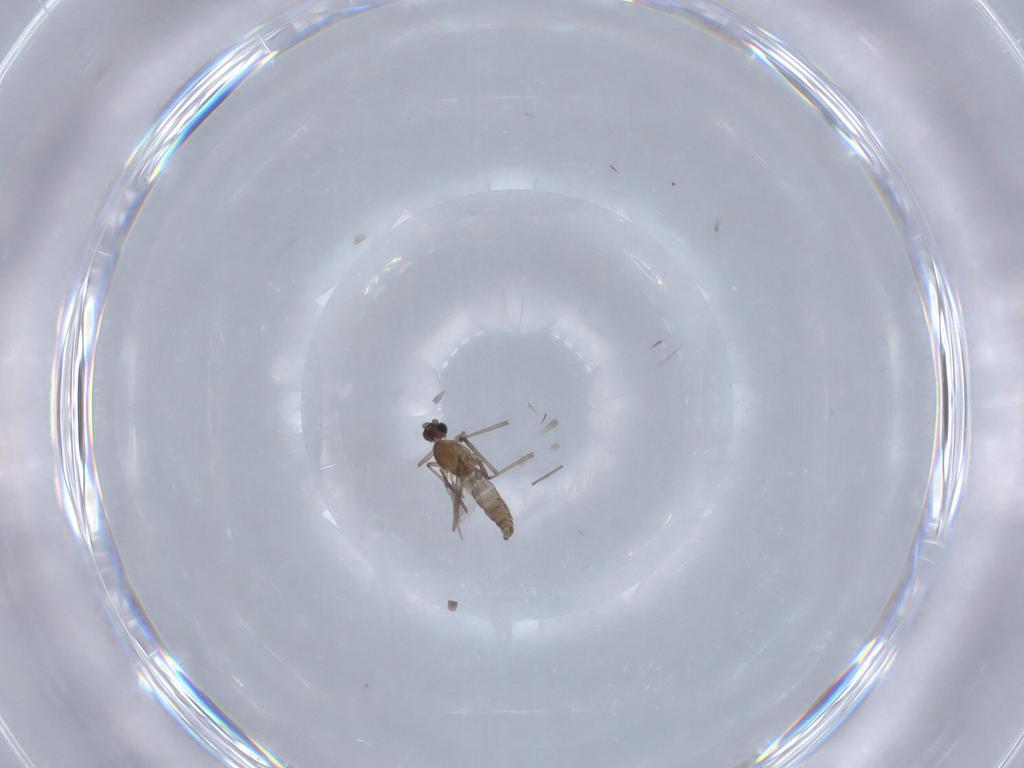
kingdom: Animalia
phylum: Arthropoda
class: Insecta
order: Diptera
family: Cecidomyiidae
